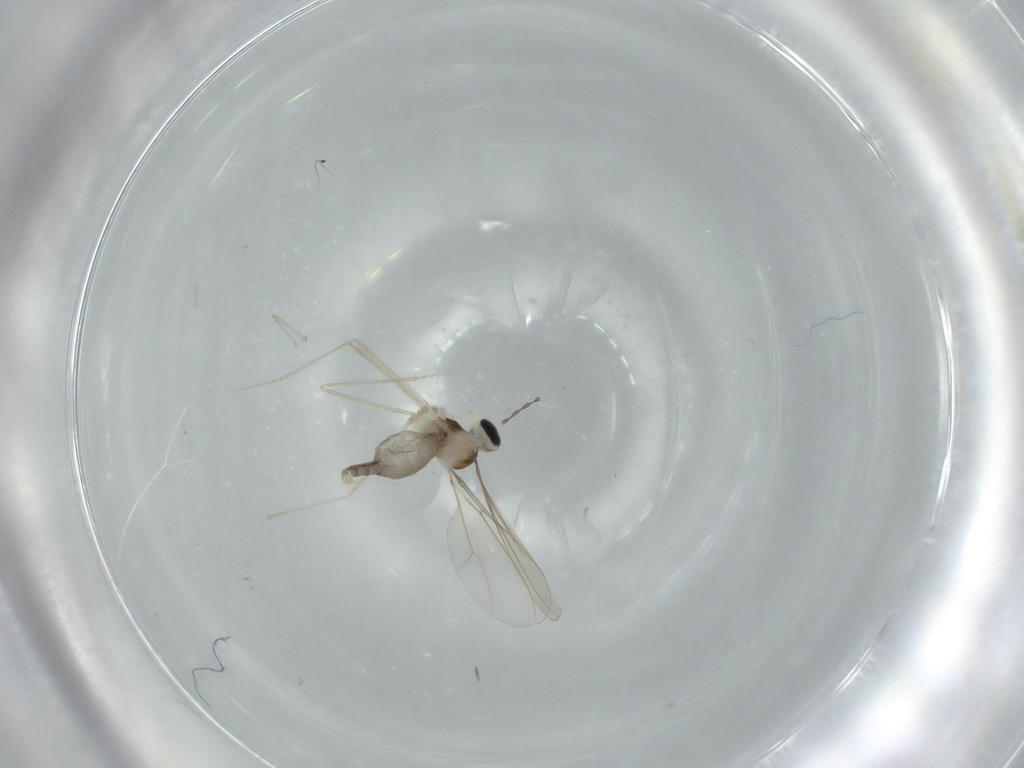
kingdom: Animalia
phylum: Arthropoda
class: Insecta
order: Diptera
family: Cecidomyiidae
